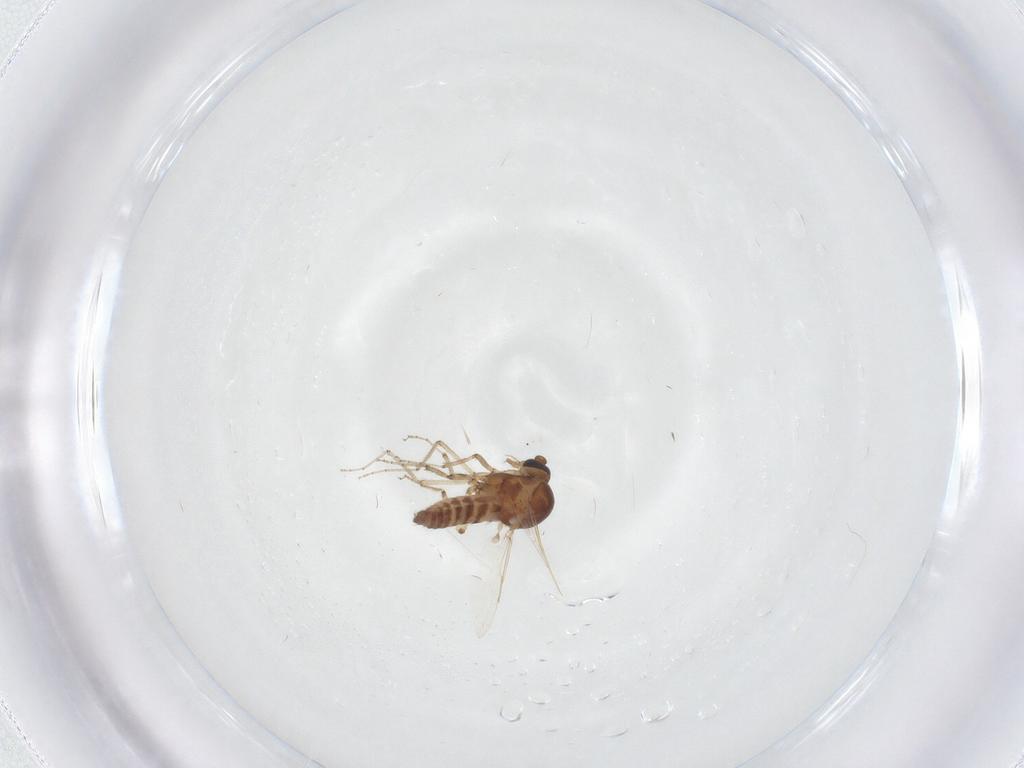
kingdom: Animalia
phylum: Arthropoda
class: Insecta
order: Diptera
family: Ceratopogonidae
